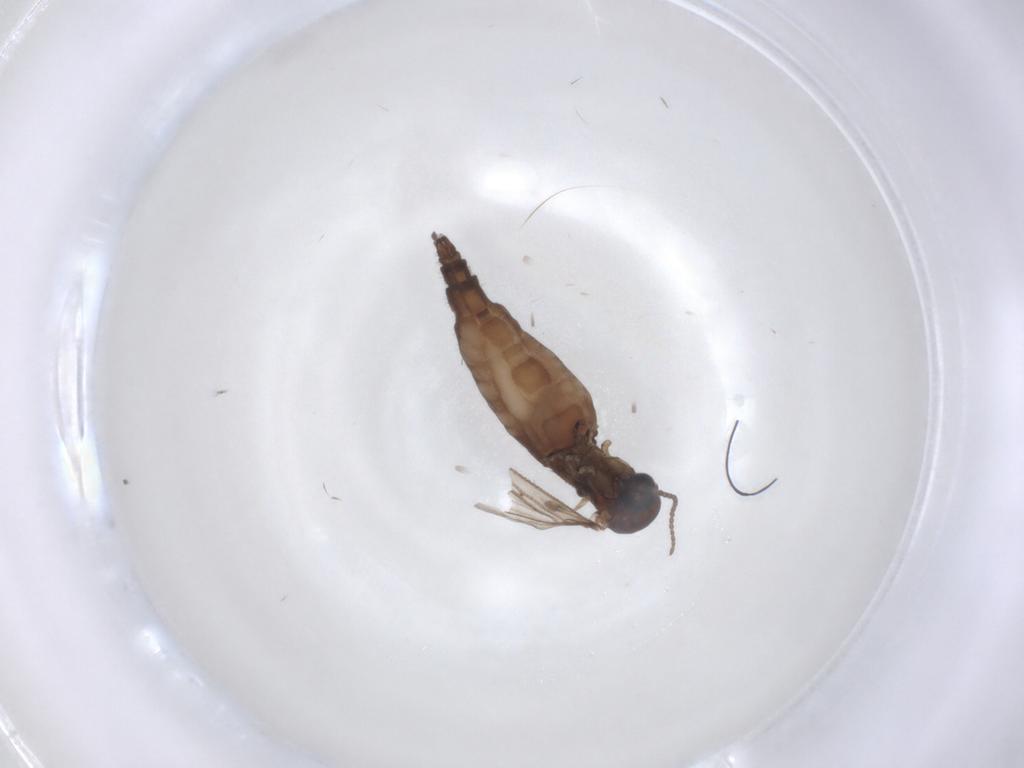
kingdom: Animalia
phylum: Arthropoda
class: Insecta
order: Diptera
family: Sciaridae
